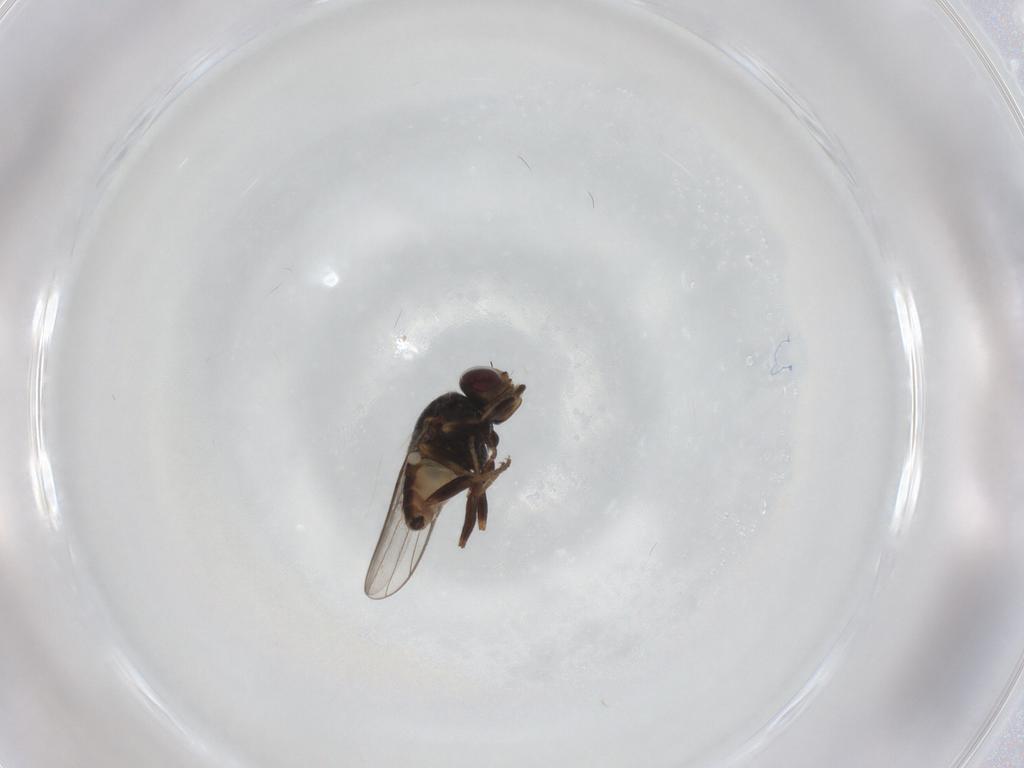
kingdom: Animalia
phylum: Arthropoda
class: Insecta
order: Diptera
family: Chloropidae
